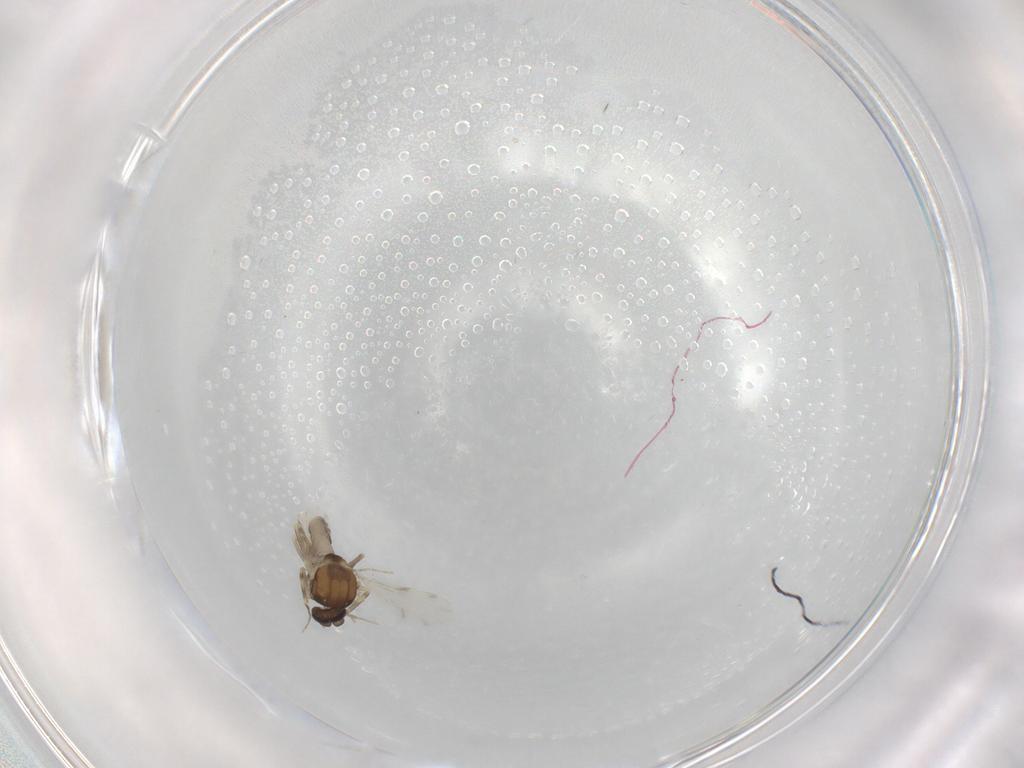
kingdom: Animalia
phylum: Arthropoda
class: Insecta
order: Diptera
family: Ceratopogonidae
